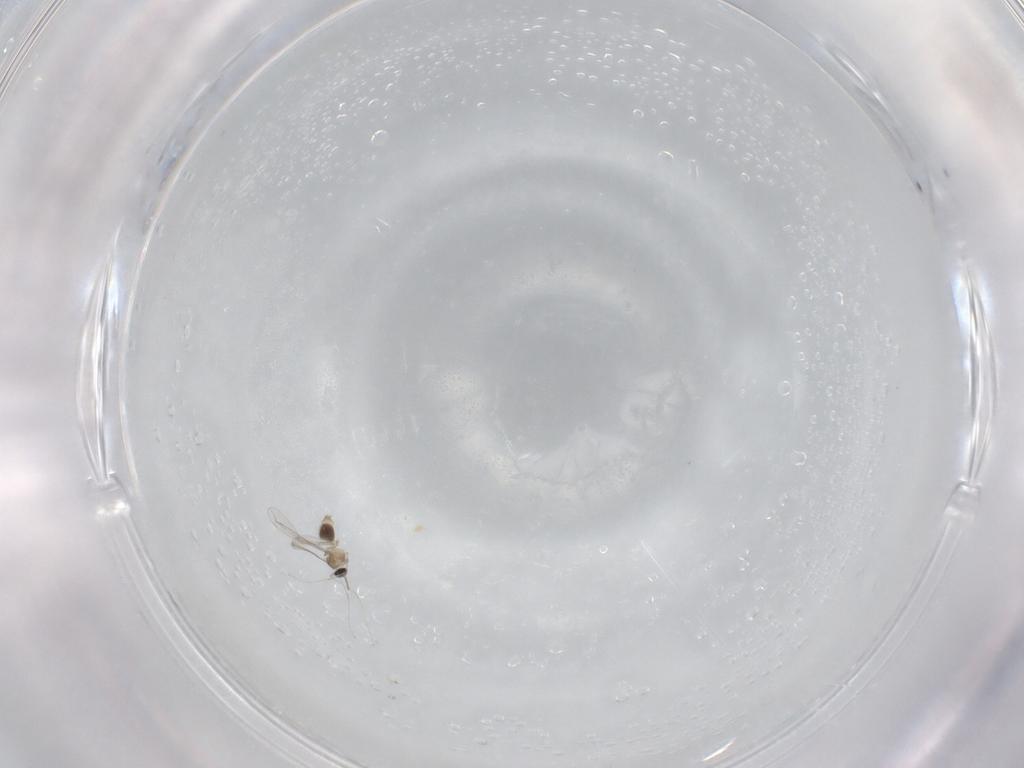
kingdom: Animalia
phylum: Arthropoda
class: Insecta
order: Diptera
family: Cecidomyiidae
